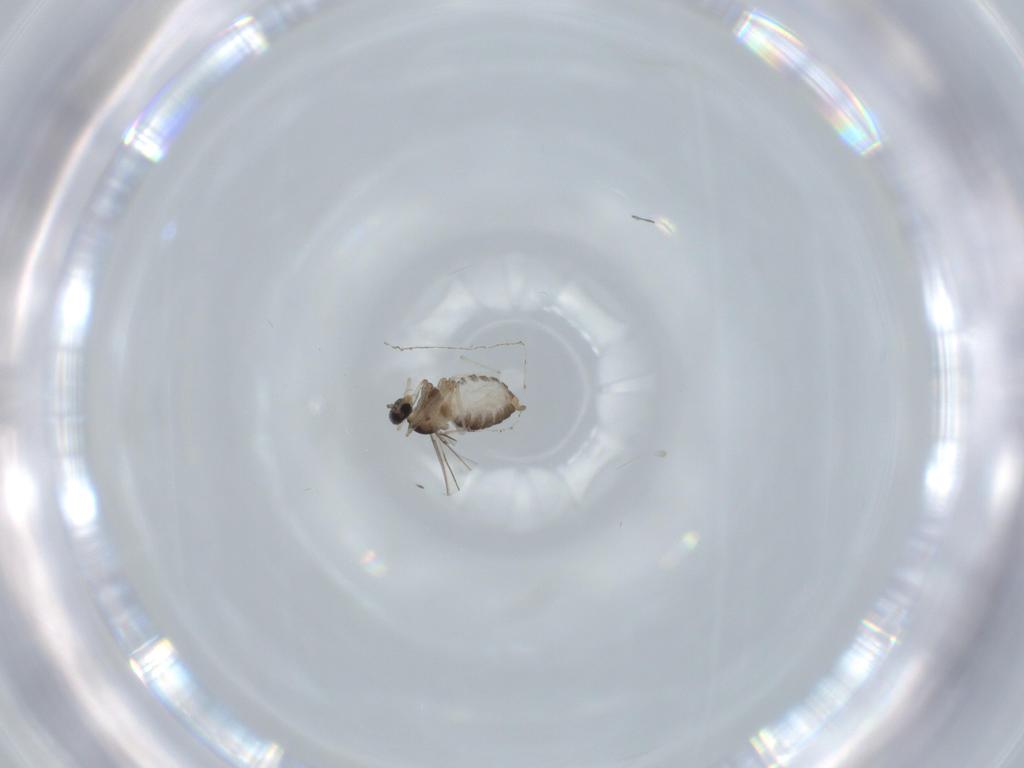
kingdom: Animalia
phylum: Arthropoda
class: Insecta
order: Diptera
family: Cecidomyiidae
